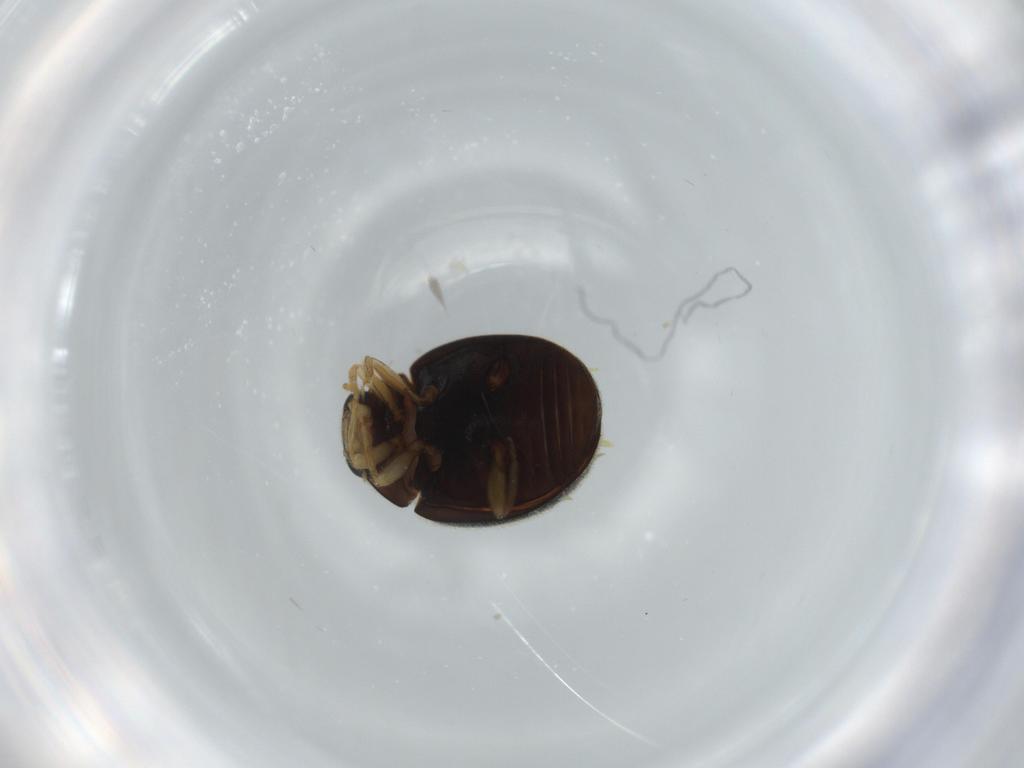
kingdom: Animalia
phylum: Arthropoda
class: Insecta
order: Coleoptera
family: Coccinellidae
